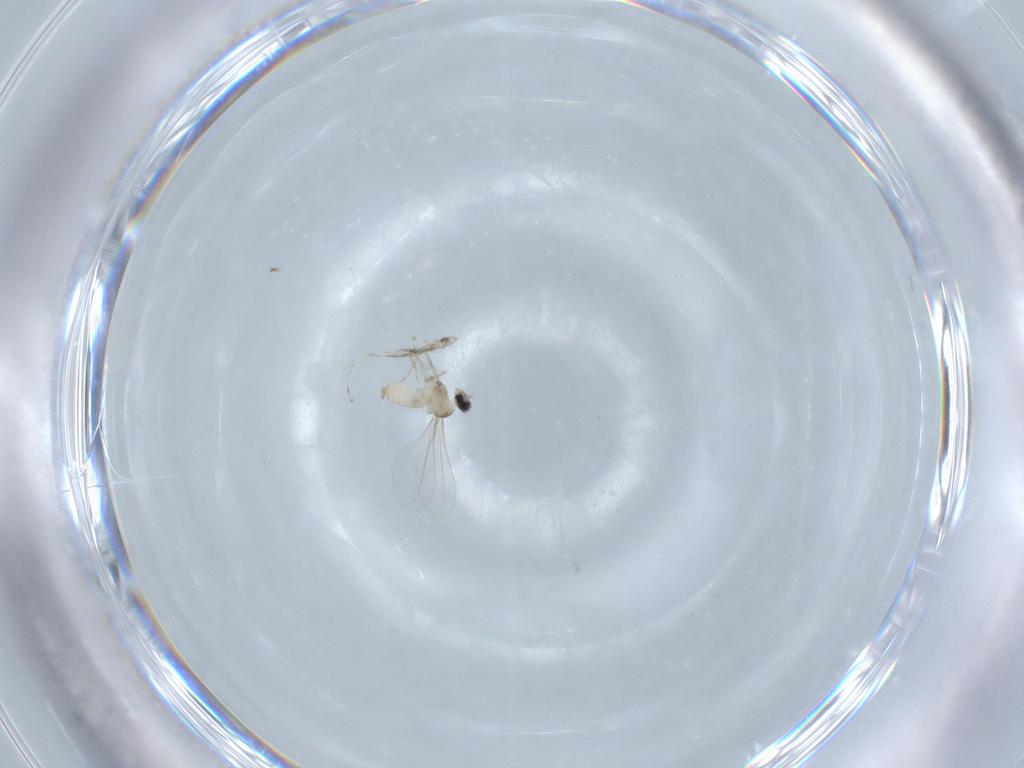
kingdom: Animalia
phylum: Arthropoda
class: Insecta
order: Diptera
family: Cecidomyiidae
